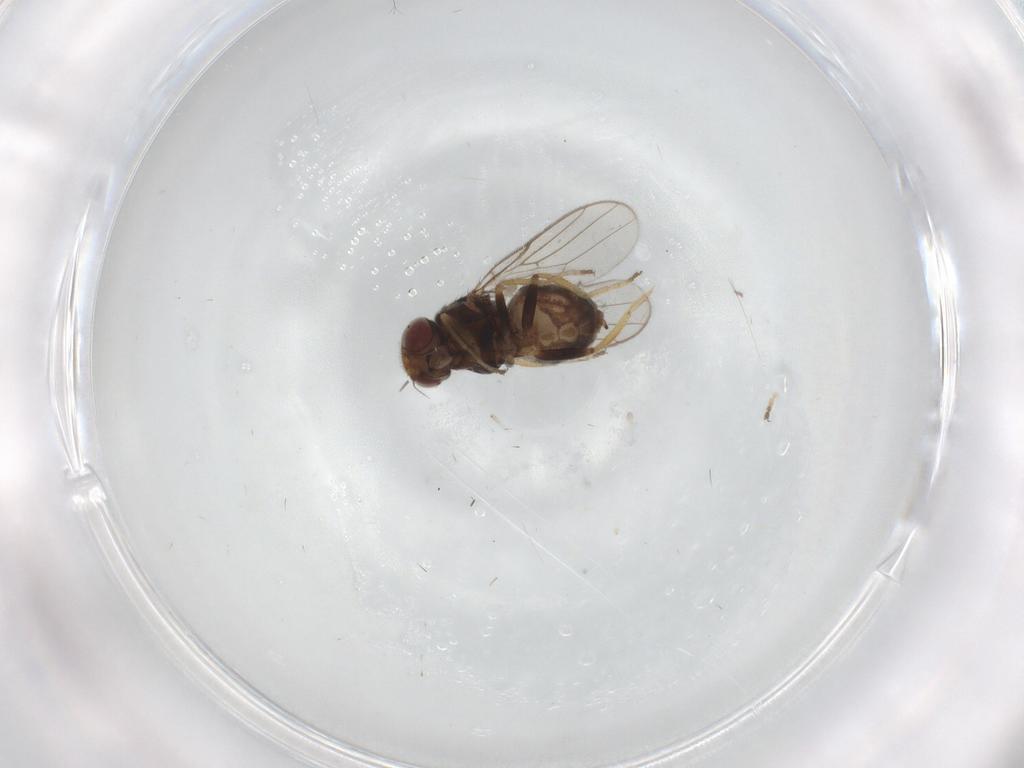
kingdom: Animalia
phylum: Arthropoda
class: Insecta
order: Diptera
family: Chloropidae
